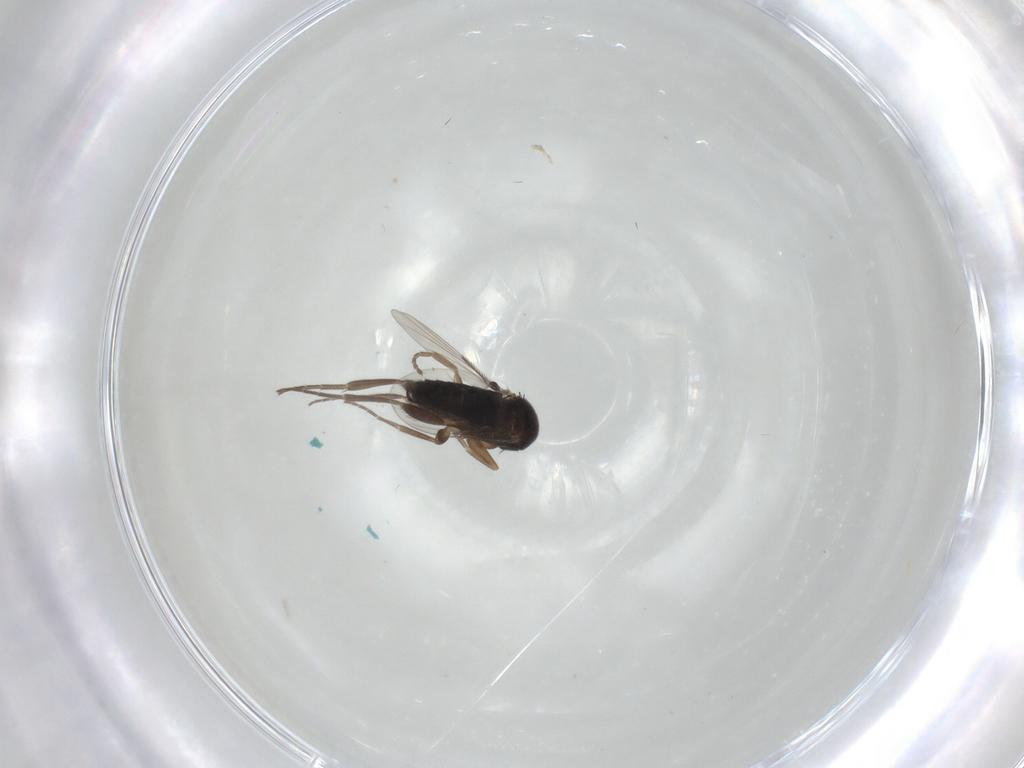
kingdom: Animalia
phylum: Arthropoda
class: Insecta
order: Diptera
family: Phoridae
